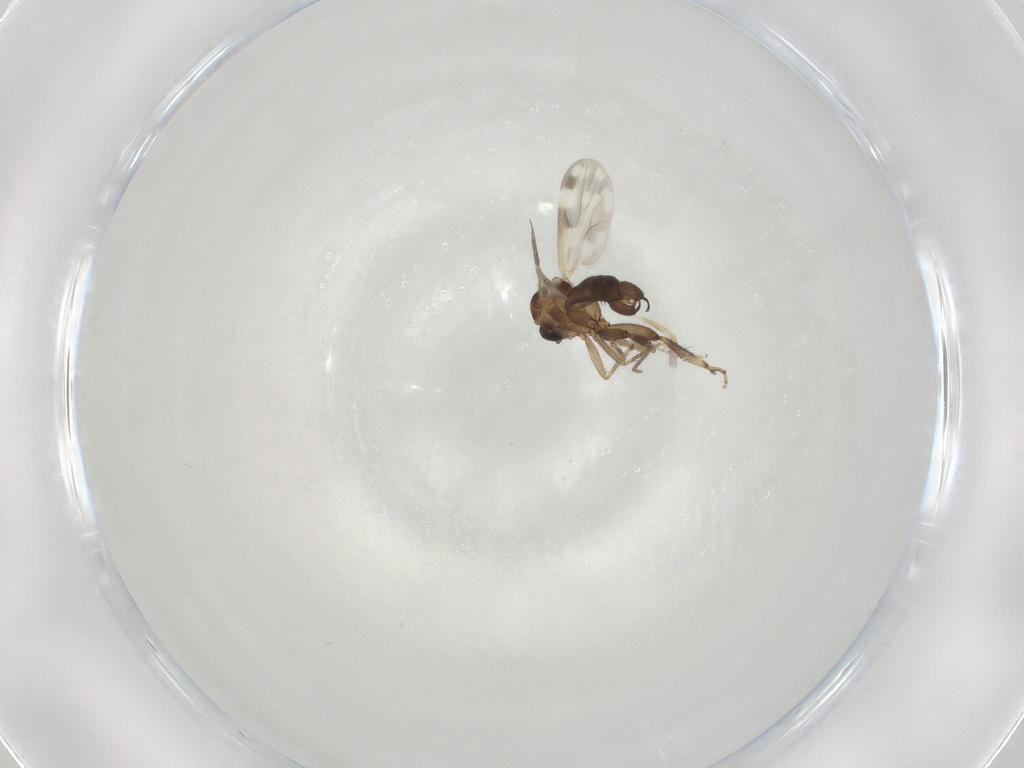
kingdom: Animalia
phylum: Arthropoda
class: Insecta
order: Diptera
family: Ceratopogonidae
